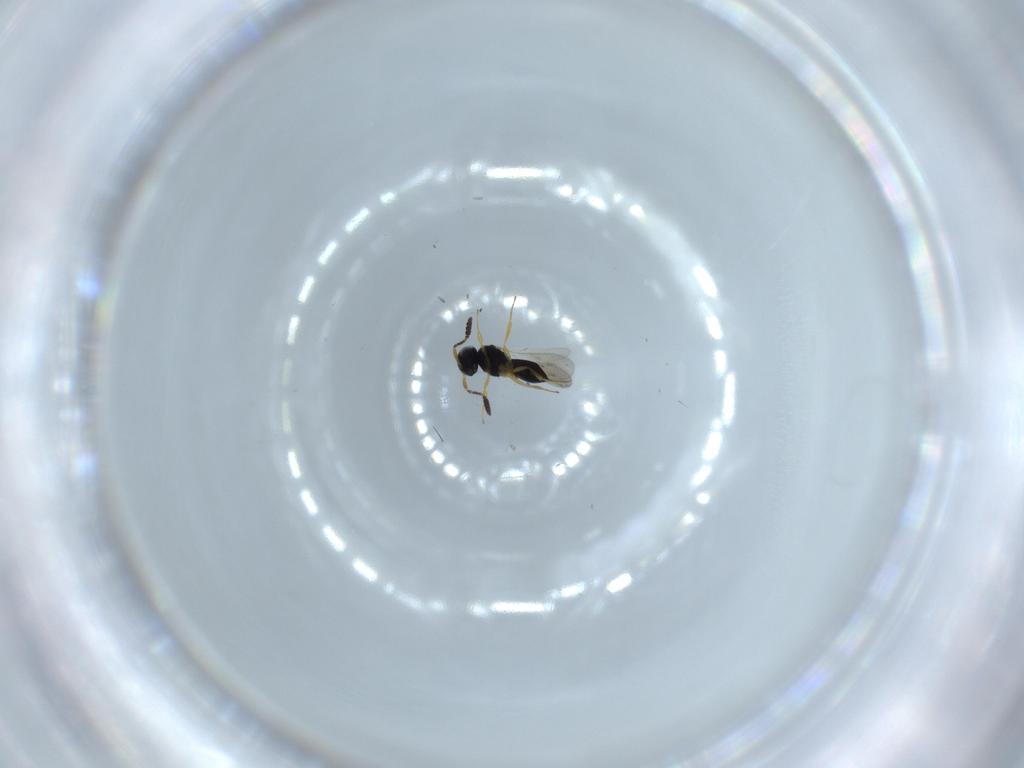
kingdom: Animalia
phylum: Arthropoda
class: Insecta
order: Hymenoptera
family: Scelionidae
